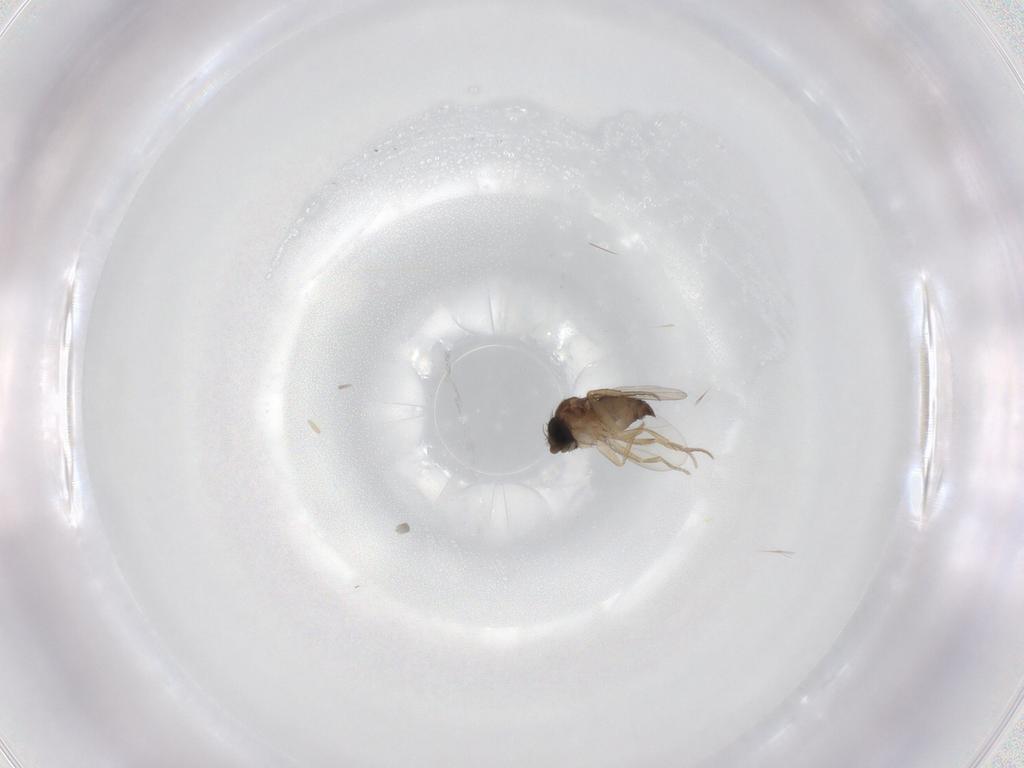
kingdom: Animalia
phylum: Arthropoda
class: Insecta
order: Diptera
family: Phoridae
